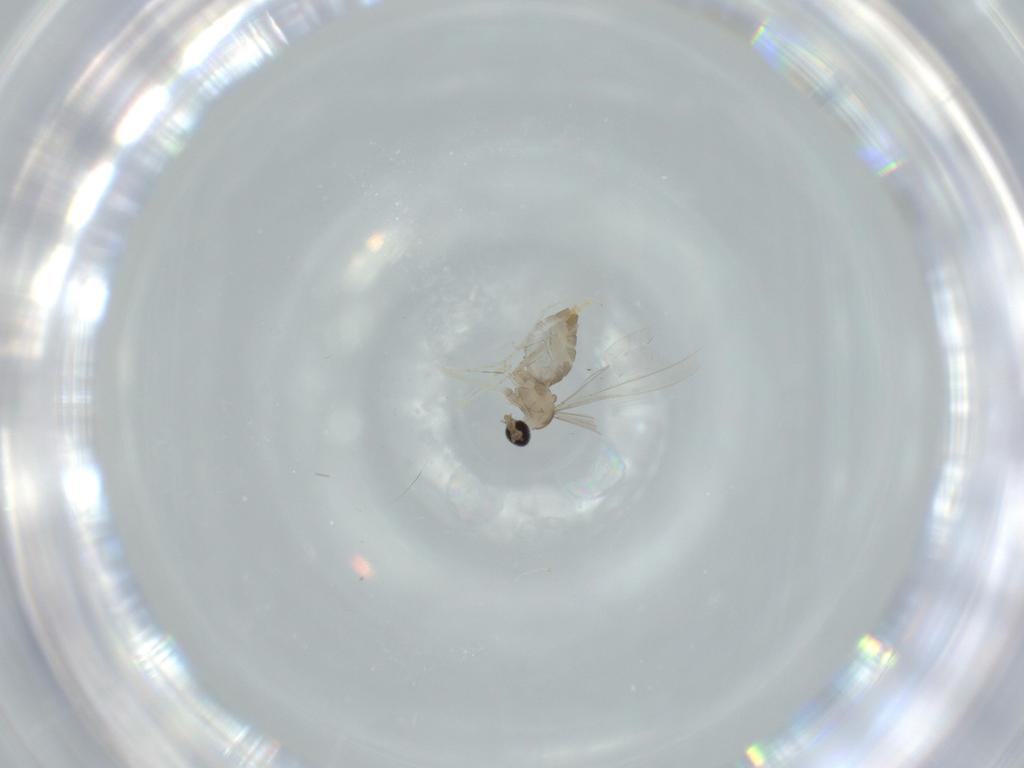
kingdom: Animalia
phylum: Arthropoda
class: Insecta
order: Diptera
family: Cecidomyiidae
